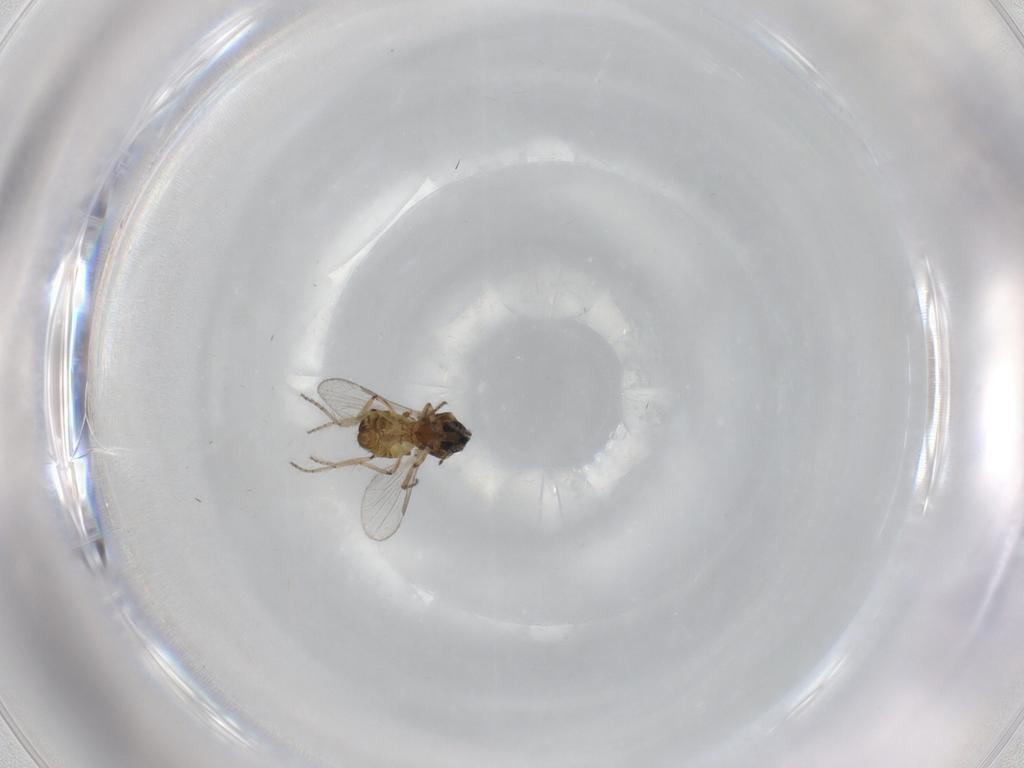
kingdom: Animalia
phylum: Arthropoda
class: Insecta
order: Diptera
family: Ceratopogonidae
